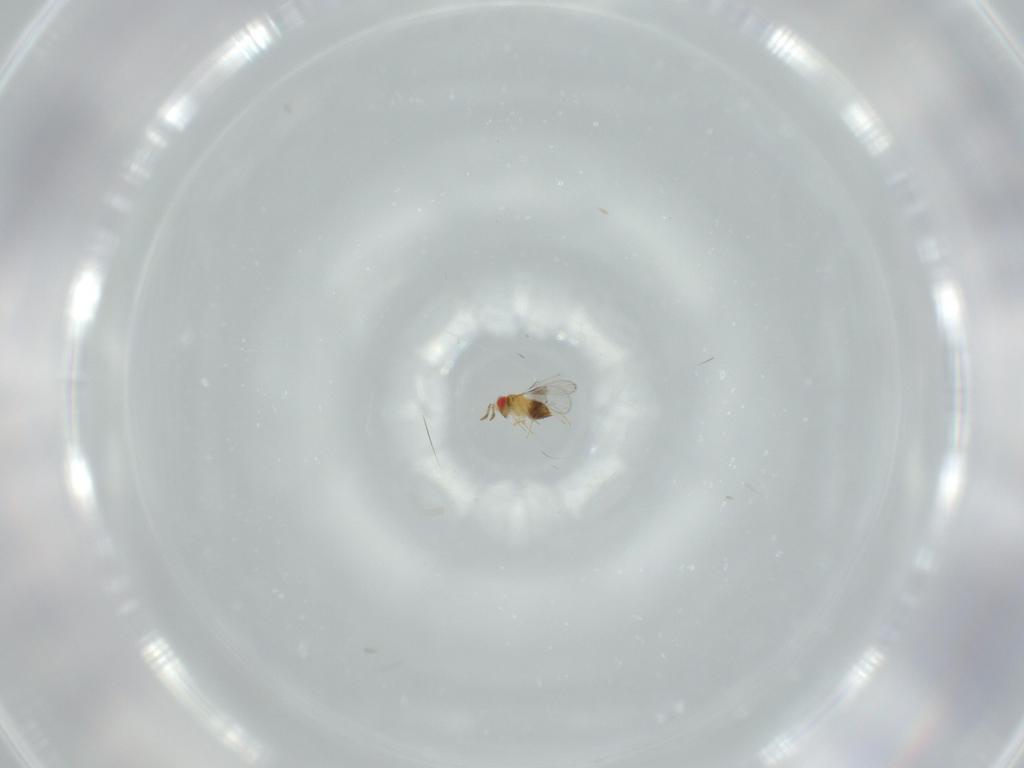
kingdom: Animalia
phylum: Arthropoda
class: Insecta
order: Hymenoptera
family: Trichogrammatidae
